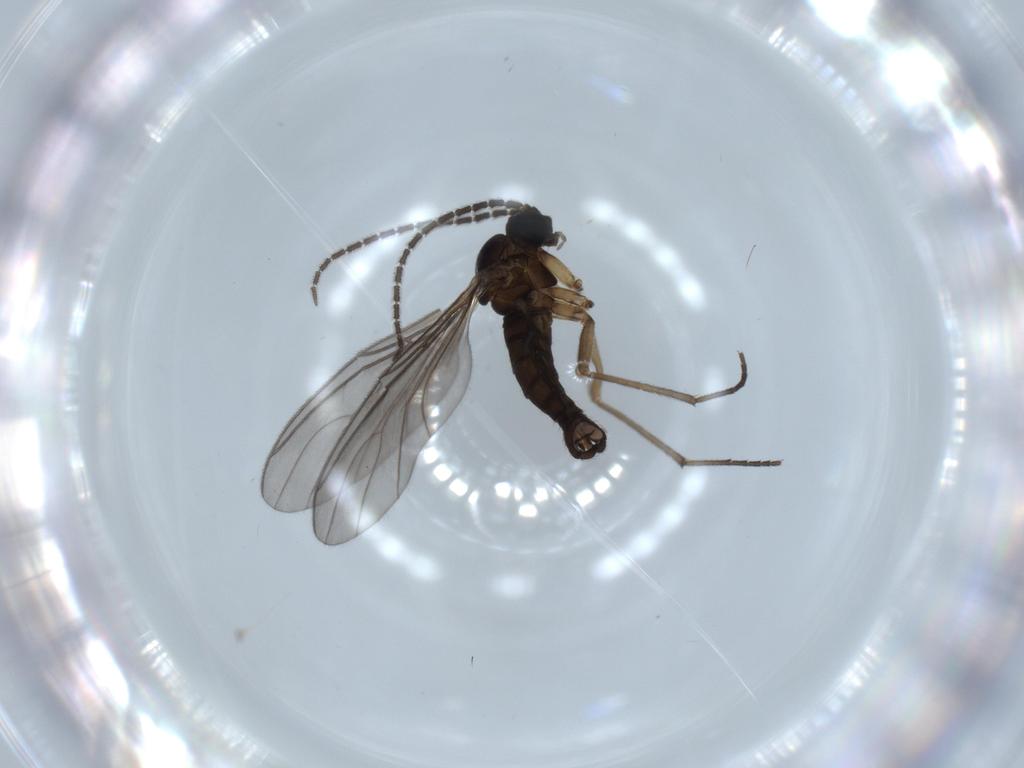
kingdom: Animalia
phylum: Arthropoda
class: Insecta
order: Diptera
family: Sciaridae
